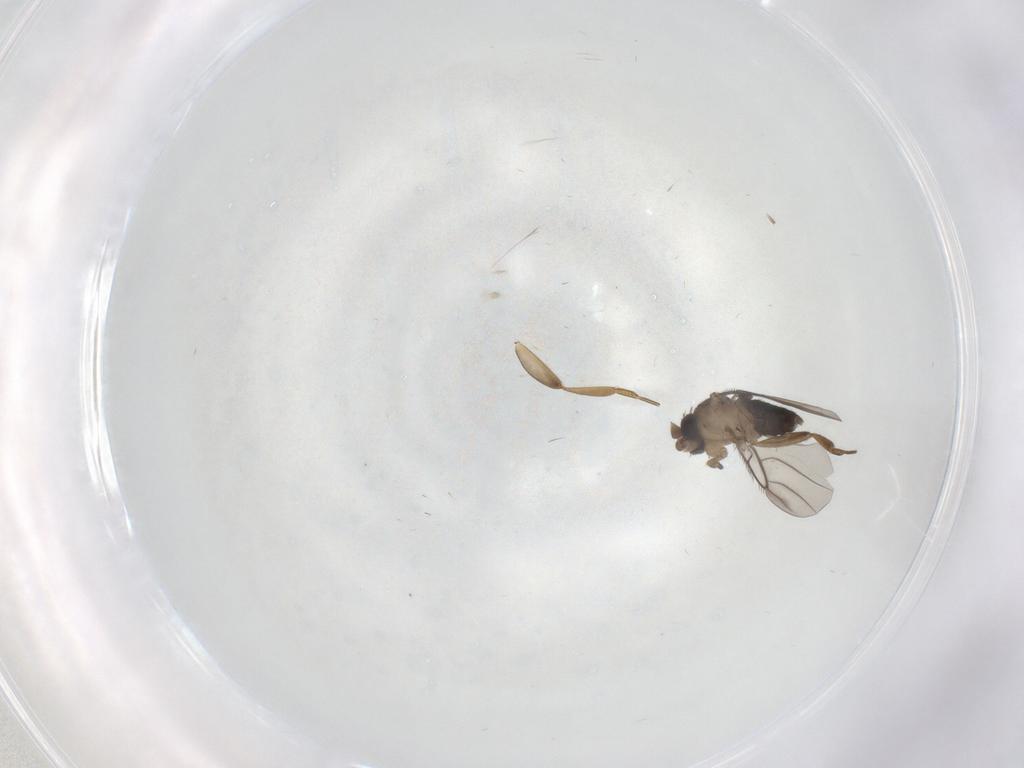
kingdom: Animalia
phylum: Arthropoda
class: Insecta
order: Diptera
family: Phoridae
